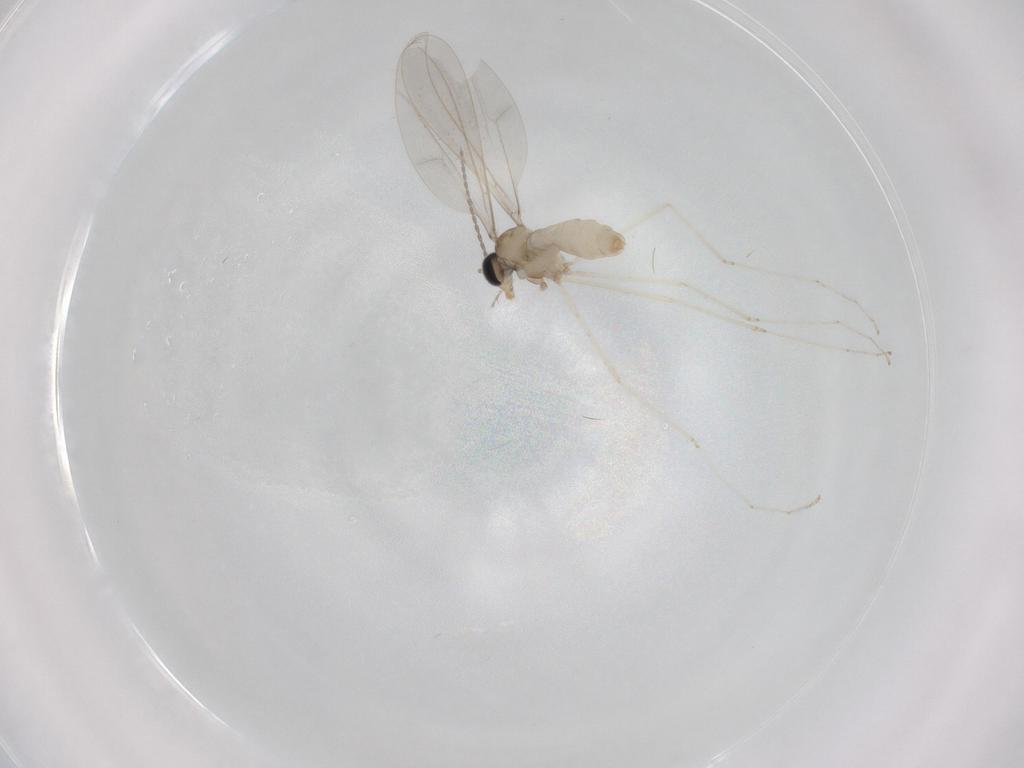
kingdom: Animalia
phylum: Arthropoda
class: Insecta
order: Diptera
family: Cecidomyiidae
